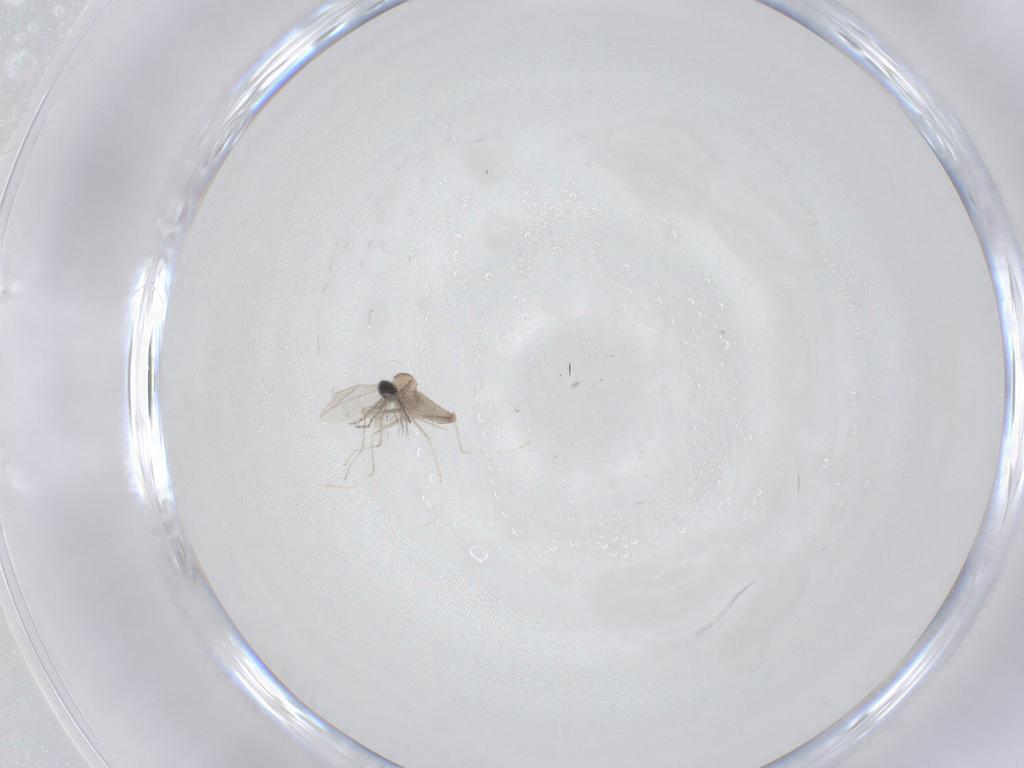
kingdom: Animalia
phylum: Arthropoda
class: Insecta
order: Diptera
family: Cecidomyiidae
